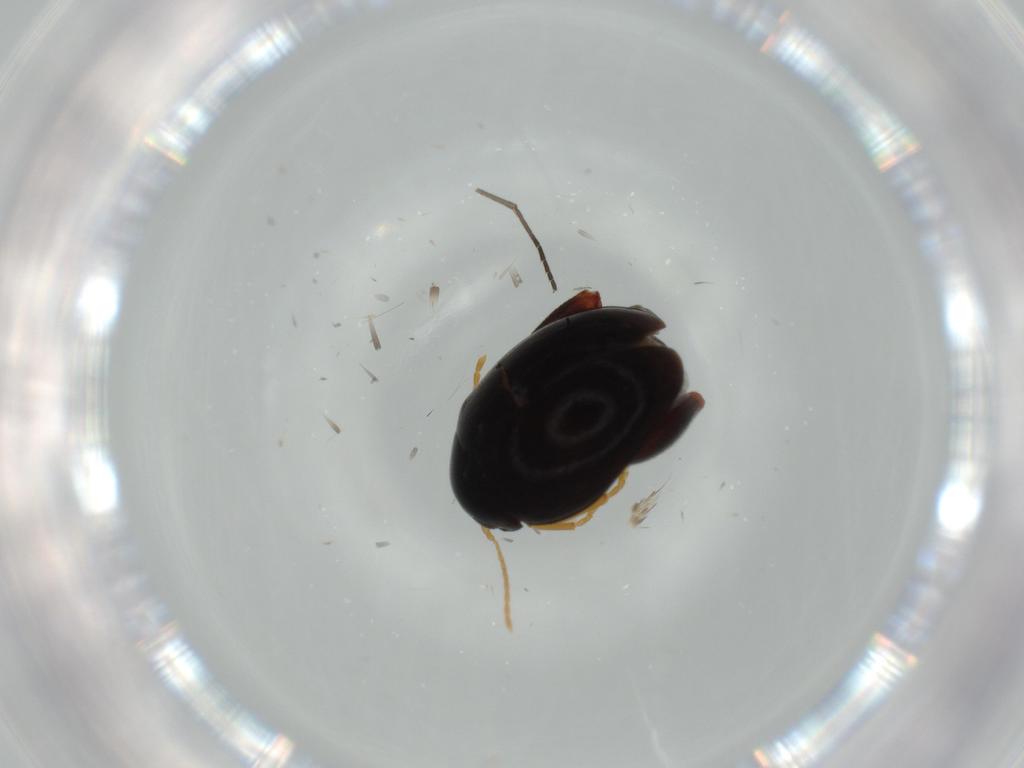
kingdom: Animalia
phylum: Arthropoda
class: Insecta
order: Coleoptera
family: Chrysomelidae
